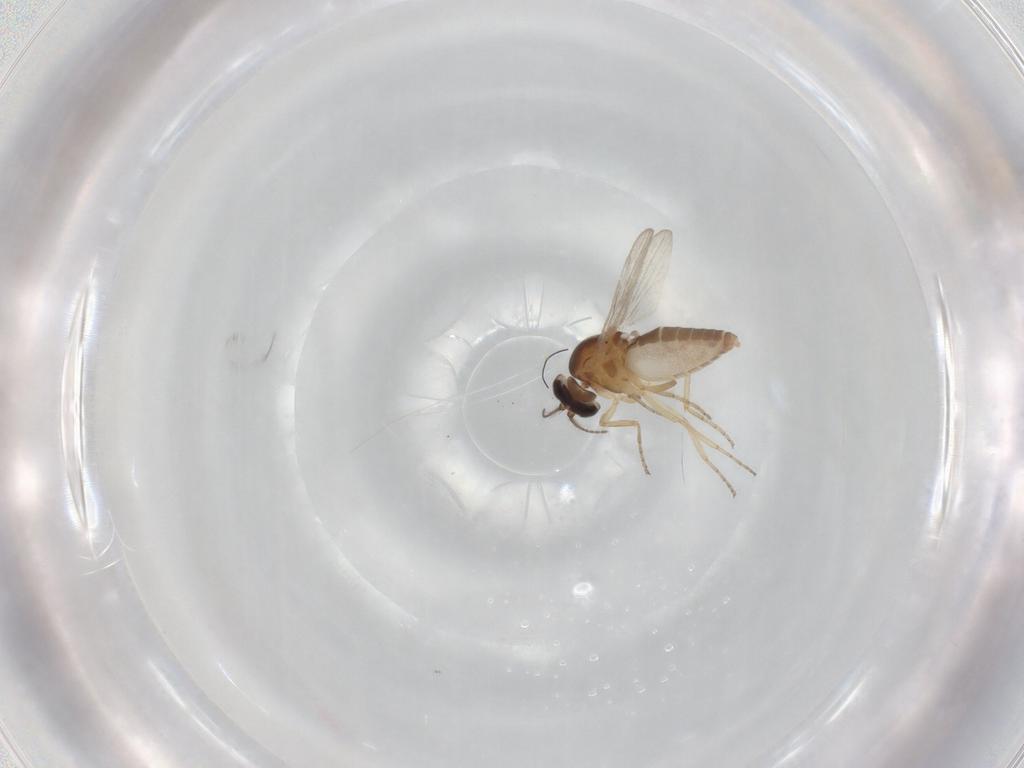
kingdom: Animalia
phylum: Arthropoda
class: Insecta
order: Diptera
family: Ceratopogonidae
